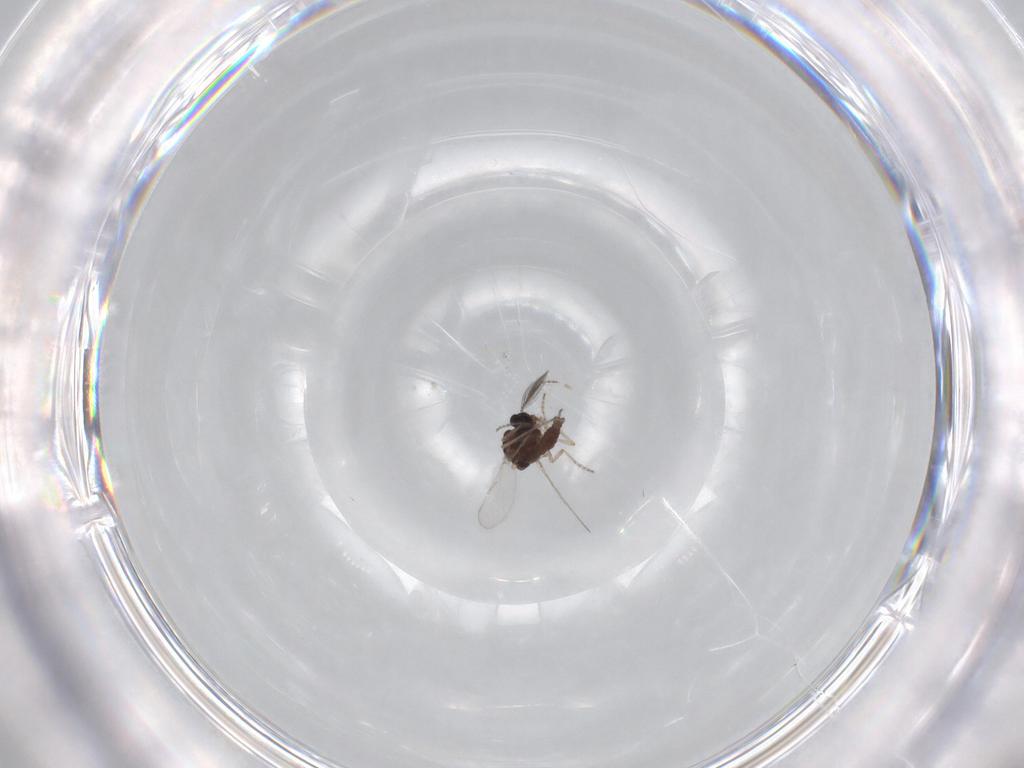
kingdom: Animalia
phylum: Arthropoda
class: Insecta
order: Diptera
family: Ceratopogonidae
